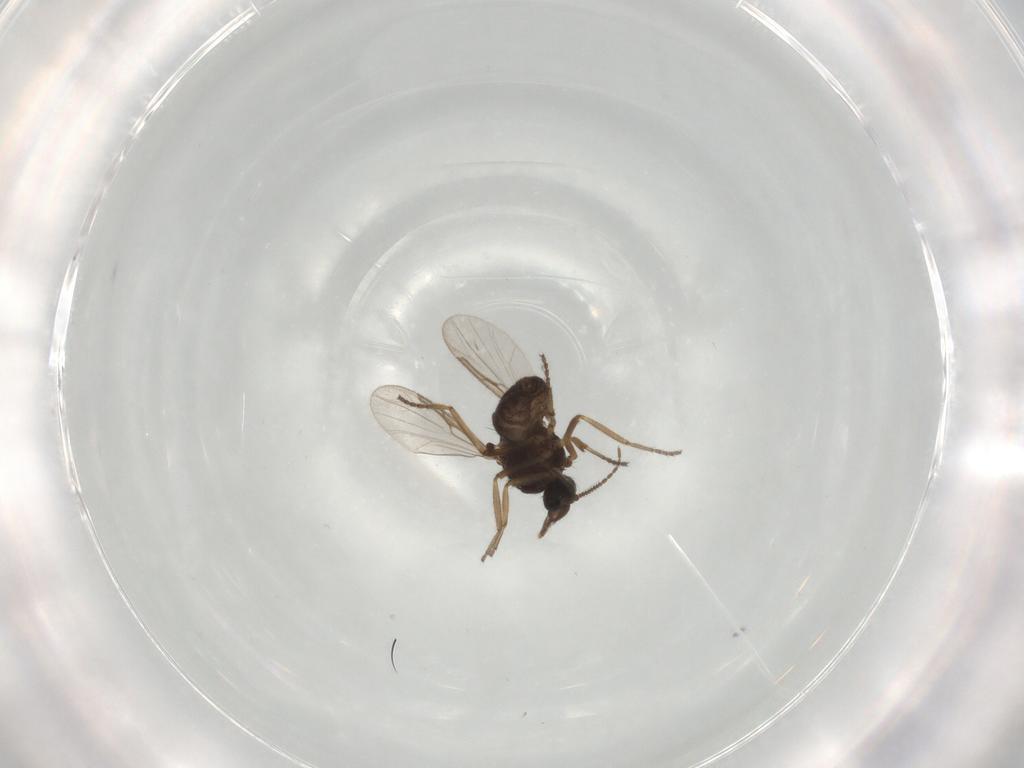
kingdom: Animalia
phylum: Arthropoda
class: Insecta
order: Diptera
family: Ceratopogonidae
